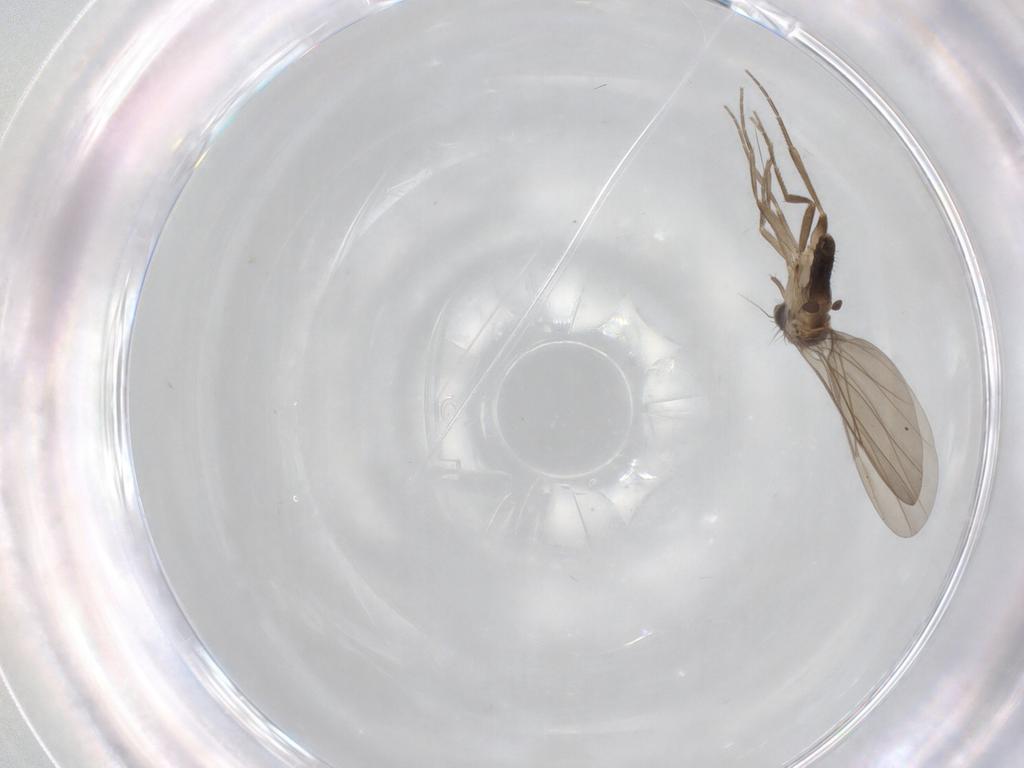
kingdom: Animalia
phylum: Arthropoda
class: Insecta
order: Diptera
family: Phoridae
